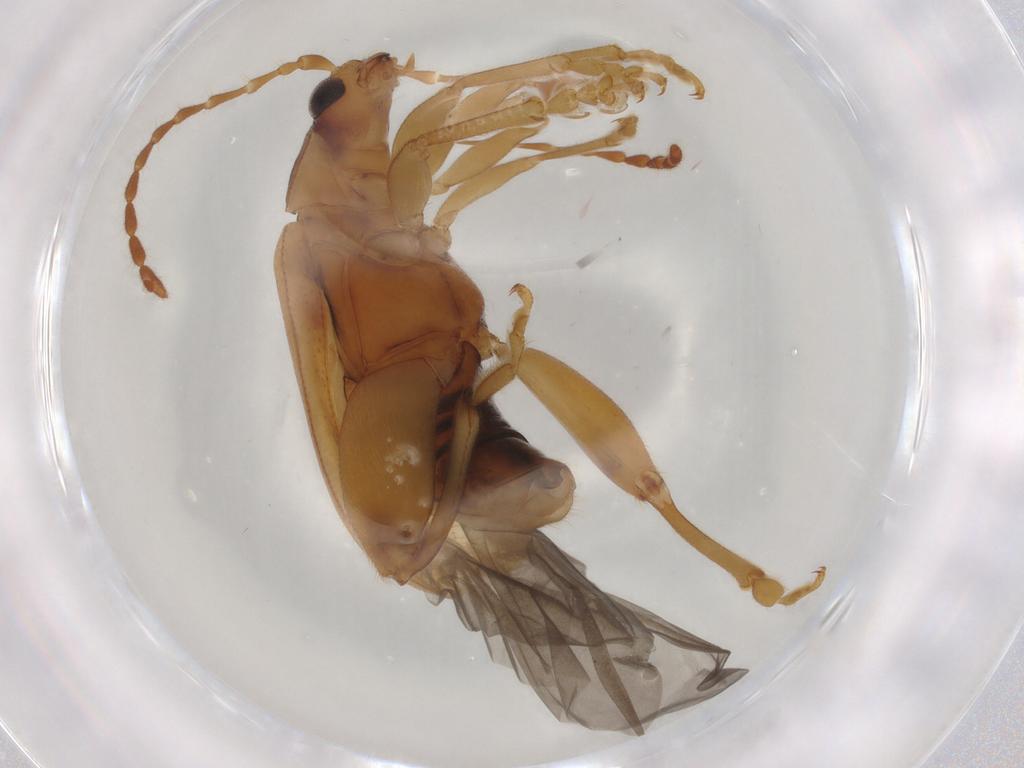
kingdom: Animalia
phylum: Arthropoda
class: Insecta
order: Coleoptera
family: Chrysomelidae
